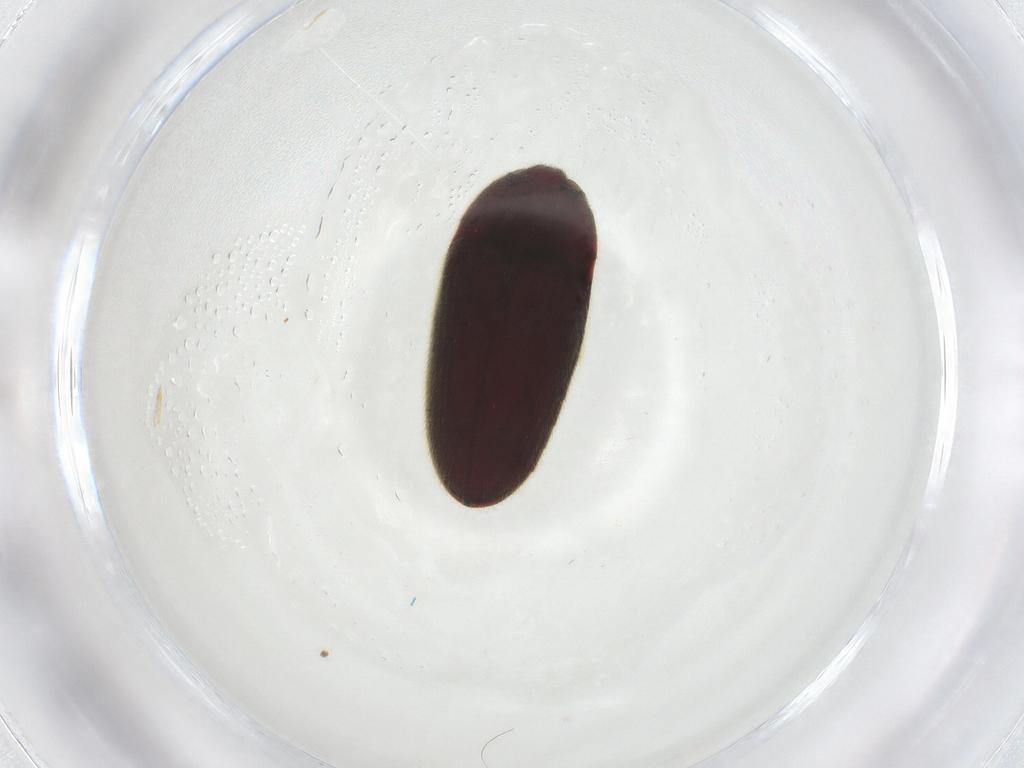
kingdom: Animalia
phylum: Arthropoda
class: Insecta
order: Coleoptera
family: Throscidae
